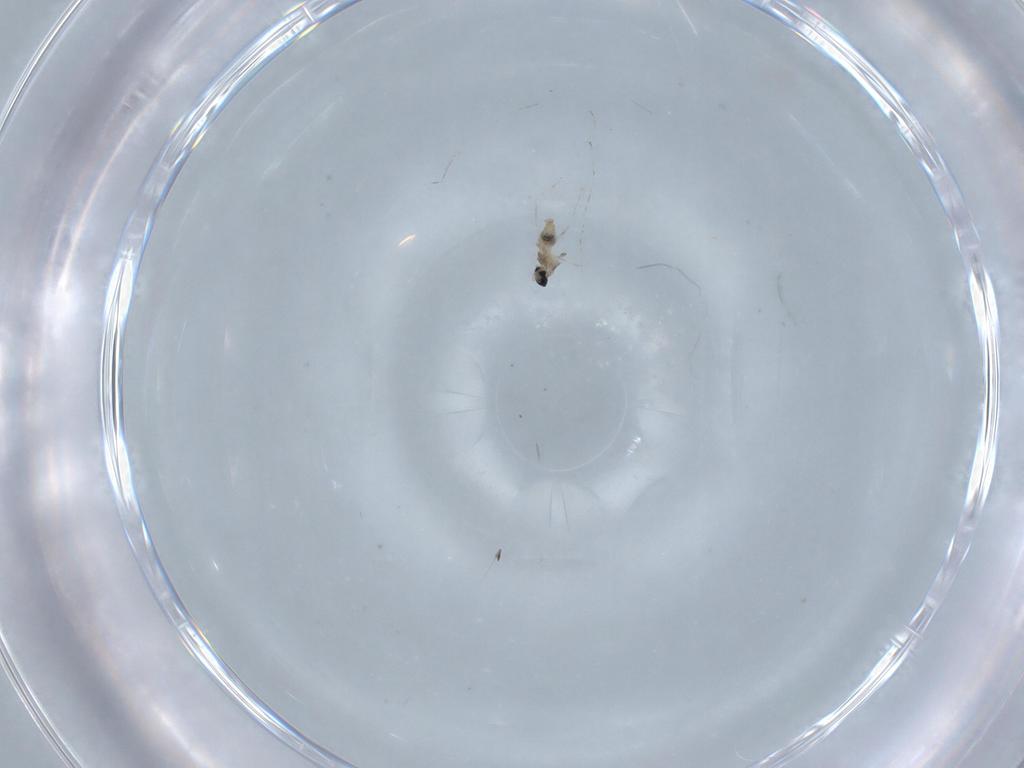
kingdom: Animalia
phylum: Arthropoda
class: Insecta
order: Diptera
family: Cecidomyiidae
